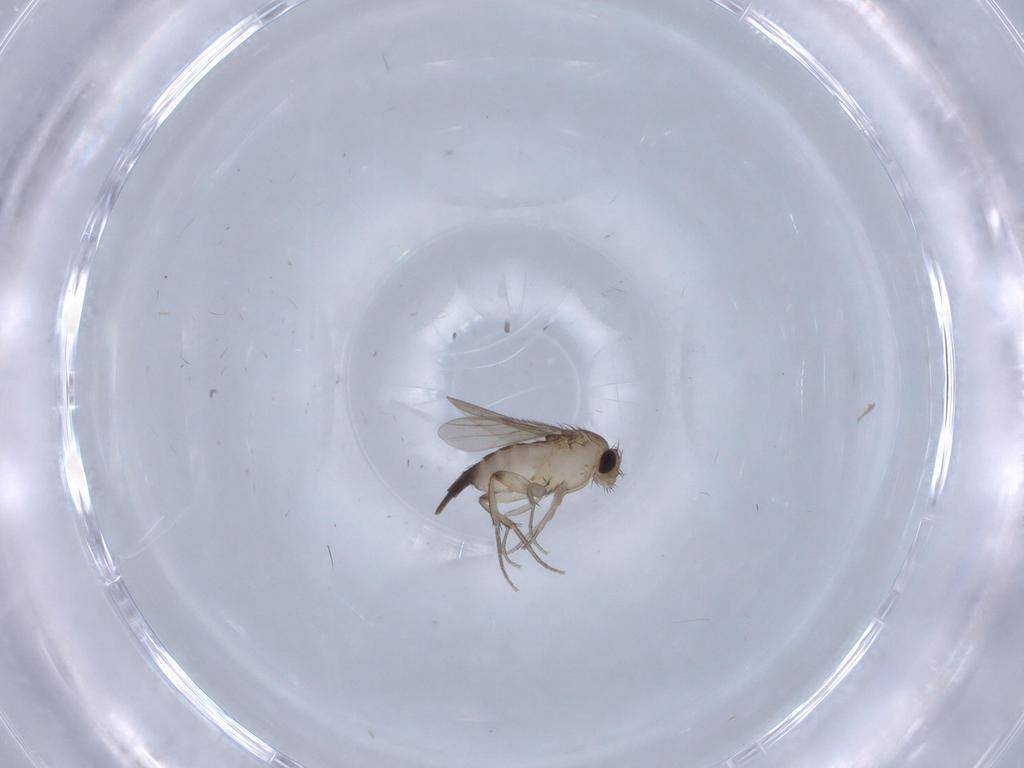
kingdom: Animalia
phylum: Arthropoda
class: Insecta
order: Diptera
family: Phoridae
